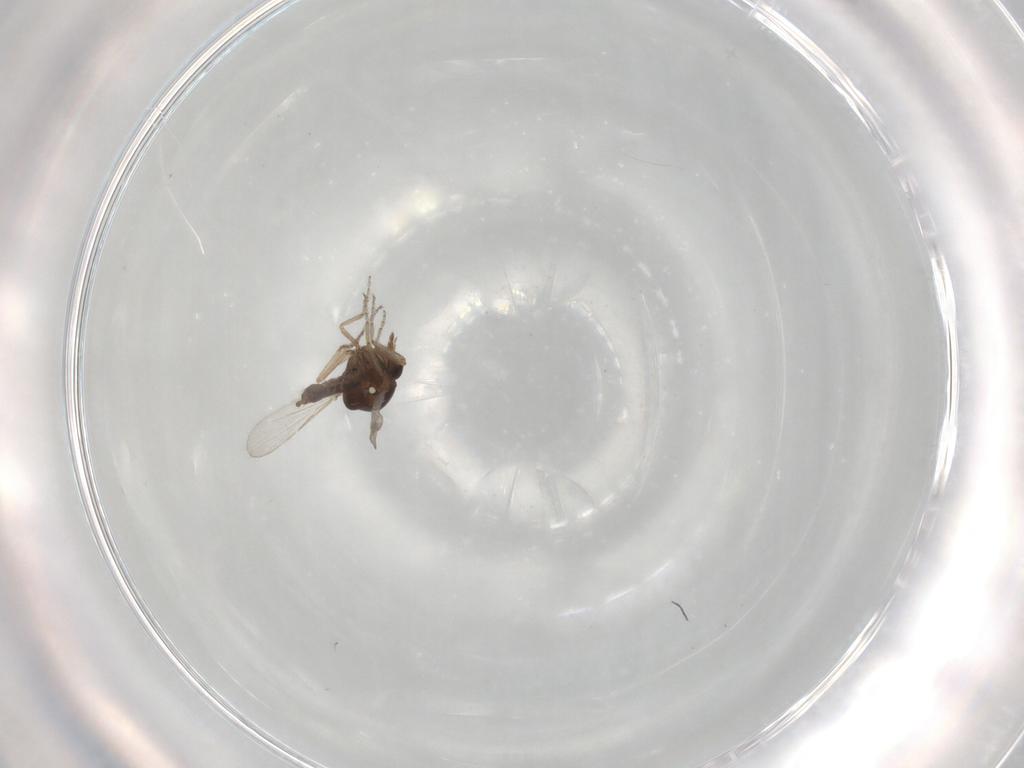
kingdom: Animalia
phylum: Arthropoda
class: Insecta
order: Diptera
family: Ceratopogonidae
